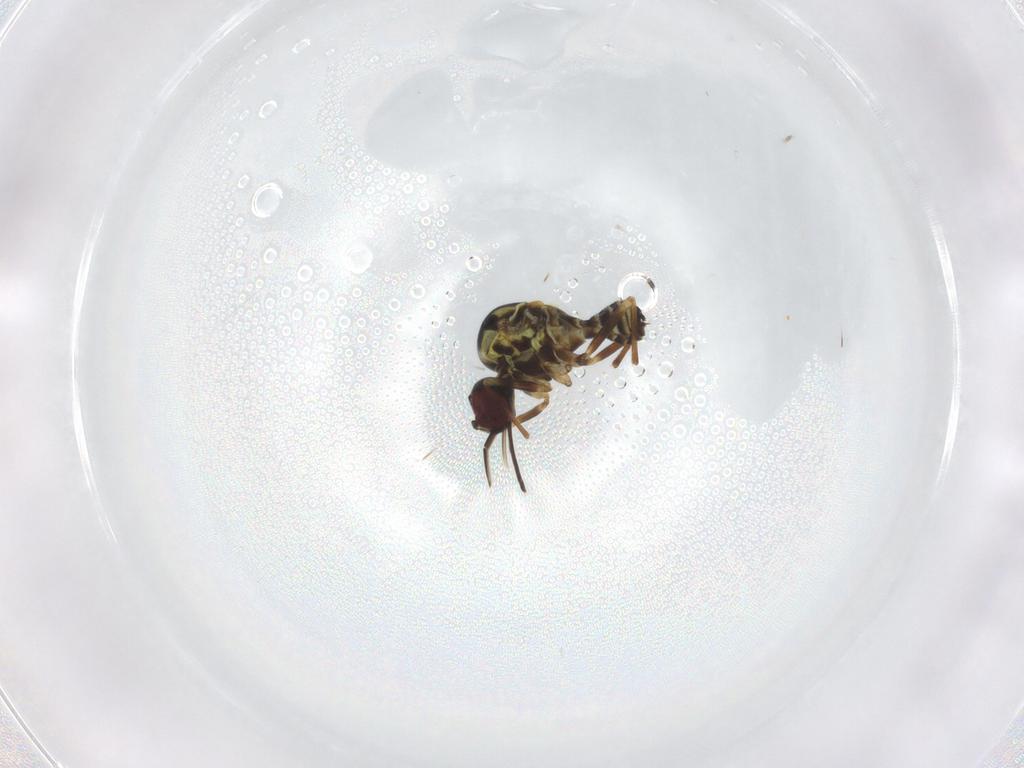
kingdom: Animalia
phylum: Arthropoda
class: Insecta
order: Diptera
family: Bombyliidae
